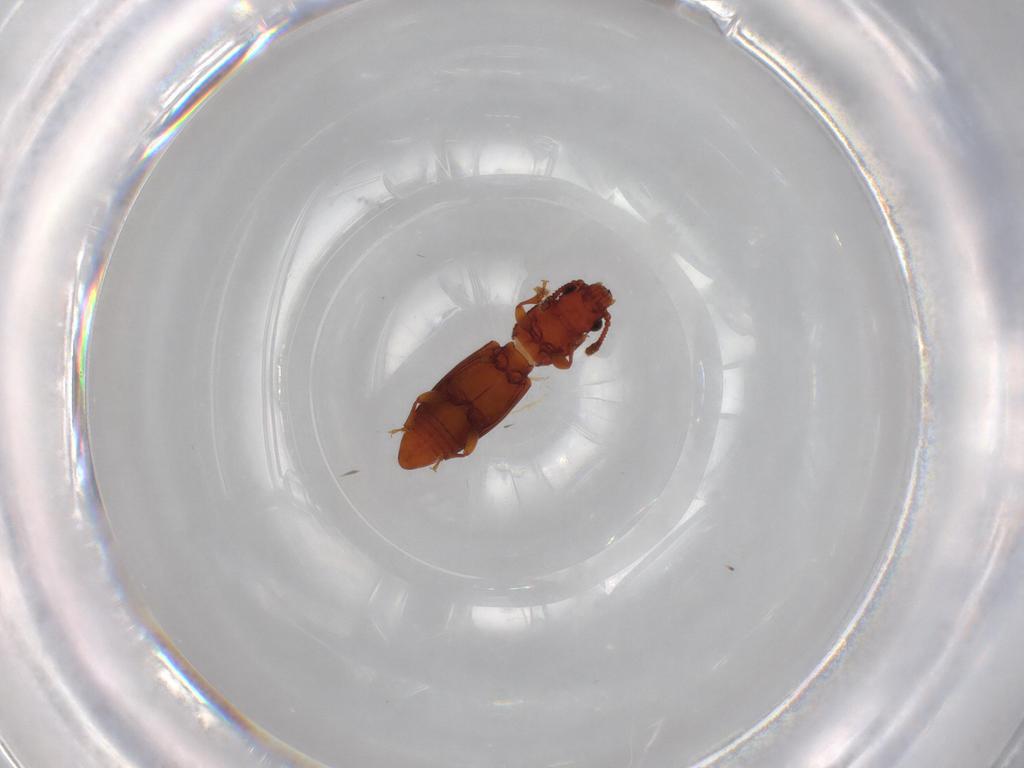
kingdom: Animalia
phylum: Arthropoda
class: Insecta
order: Coleoptera
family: Monotomidae
